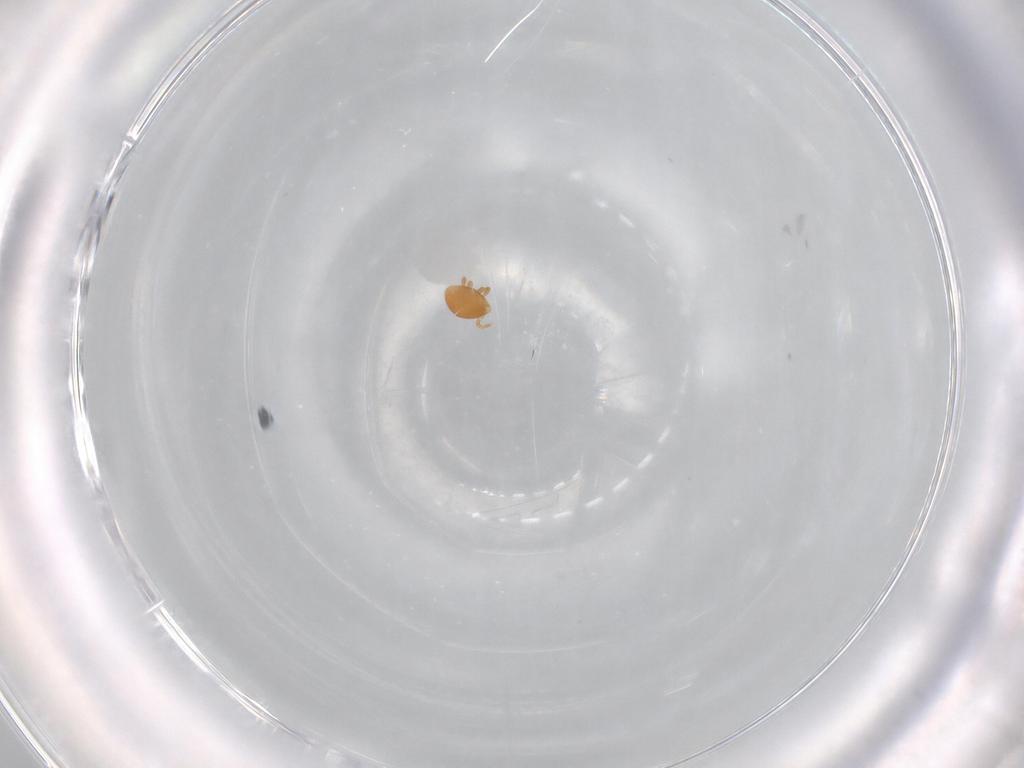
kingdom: Animalia
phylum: Arthropoda
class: Arachnida
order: Mesostigmata
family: Eviphididae
